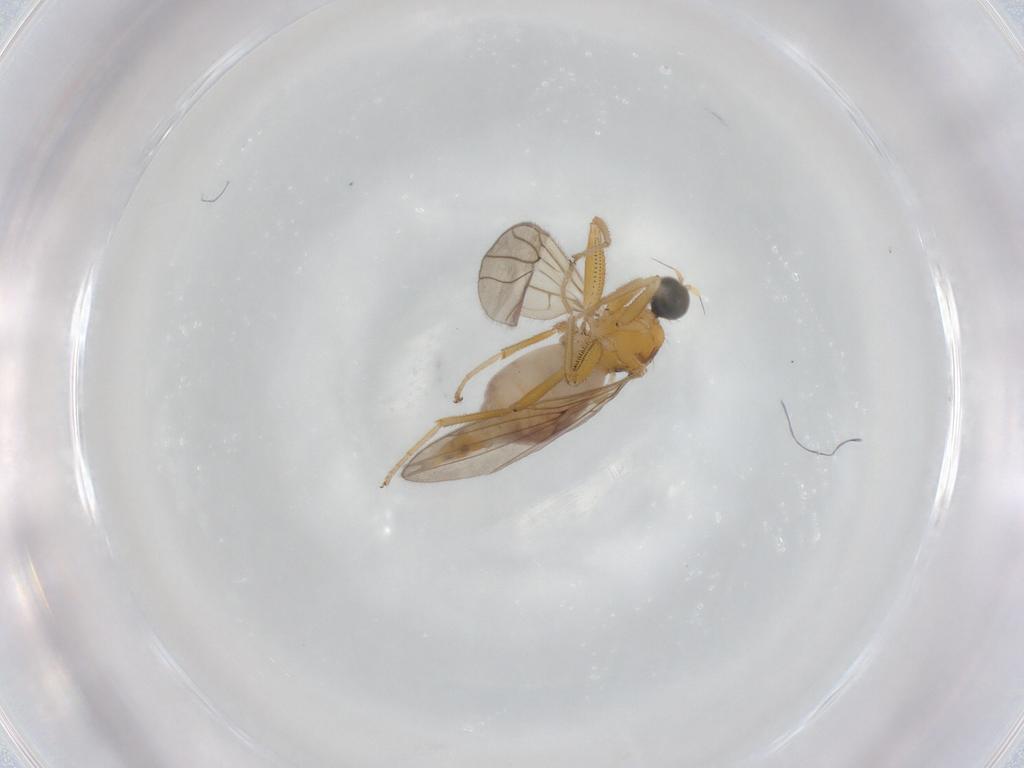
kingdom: Animalia
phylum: Arthropoda
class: Insecta
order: Diptera
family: Hybotidae
